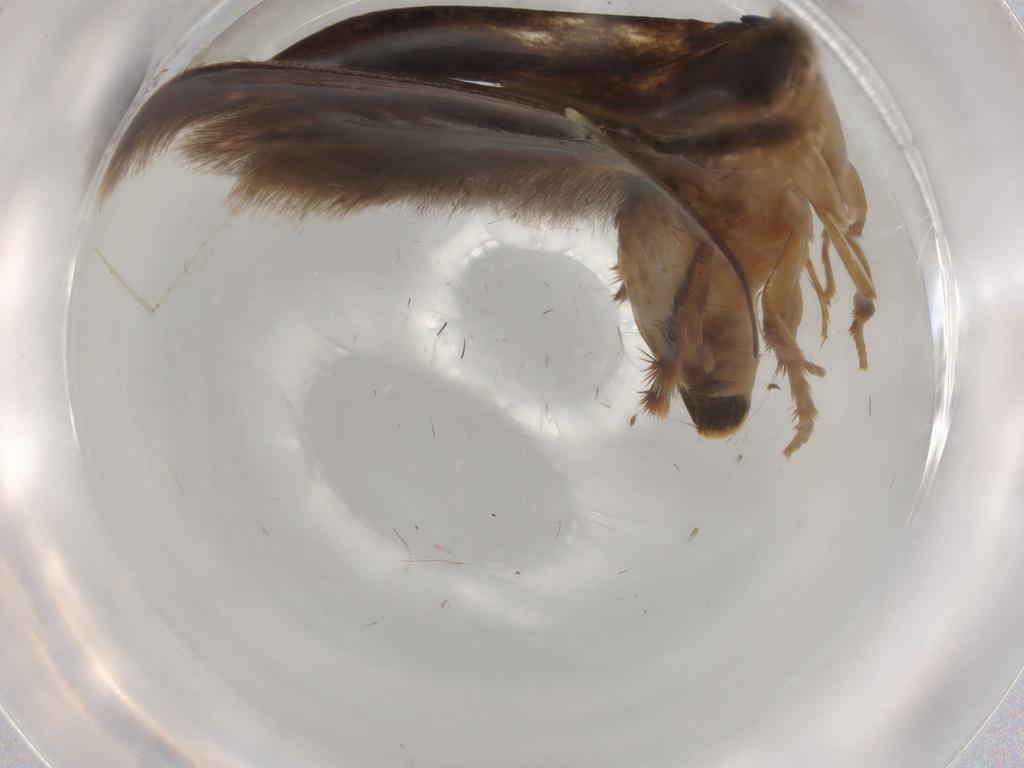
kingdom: Animalia
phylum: Arthropoda
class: Insecta
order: Lepidoptera
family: Tineidae
